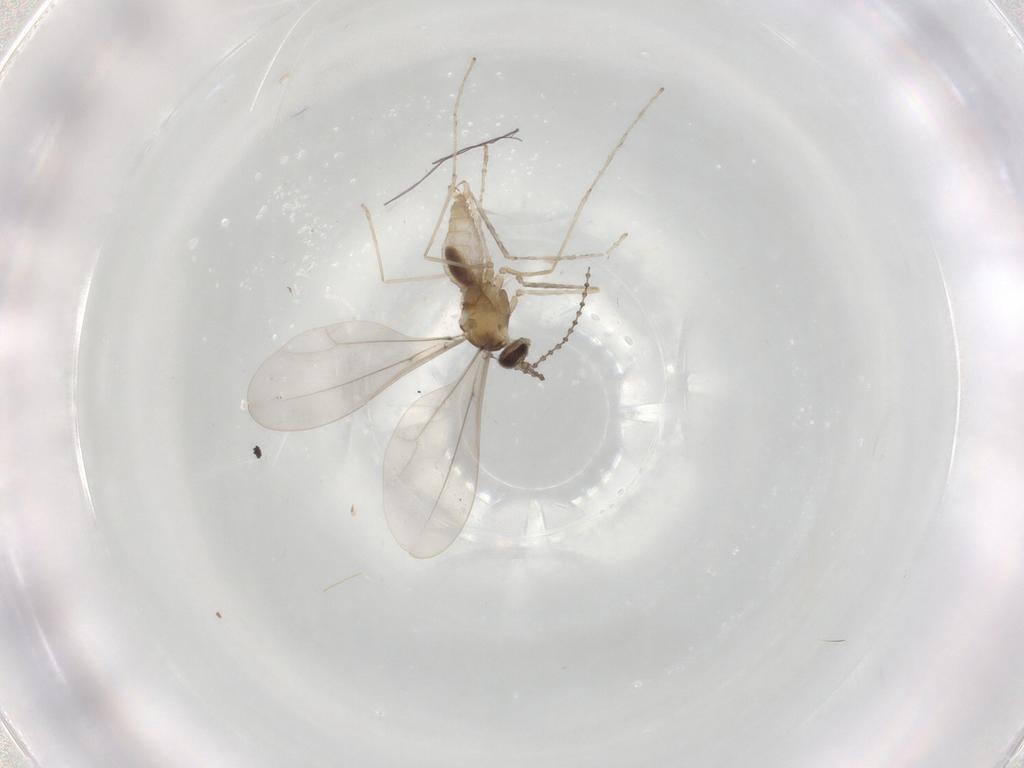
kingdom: Animalia
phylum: Arthropoda
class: Insecta
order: Diptera
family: Cecidomyiidae
